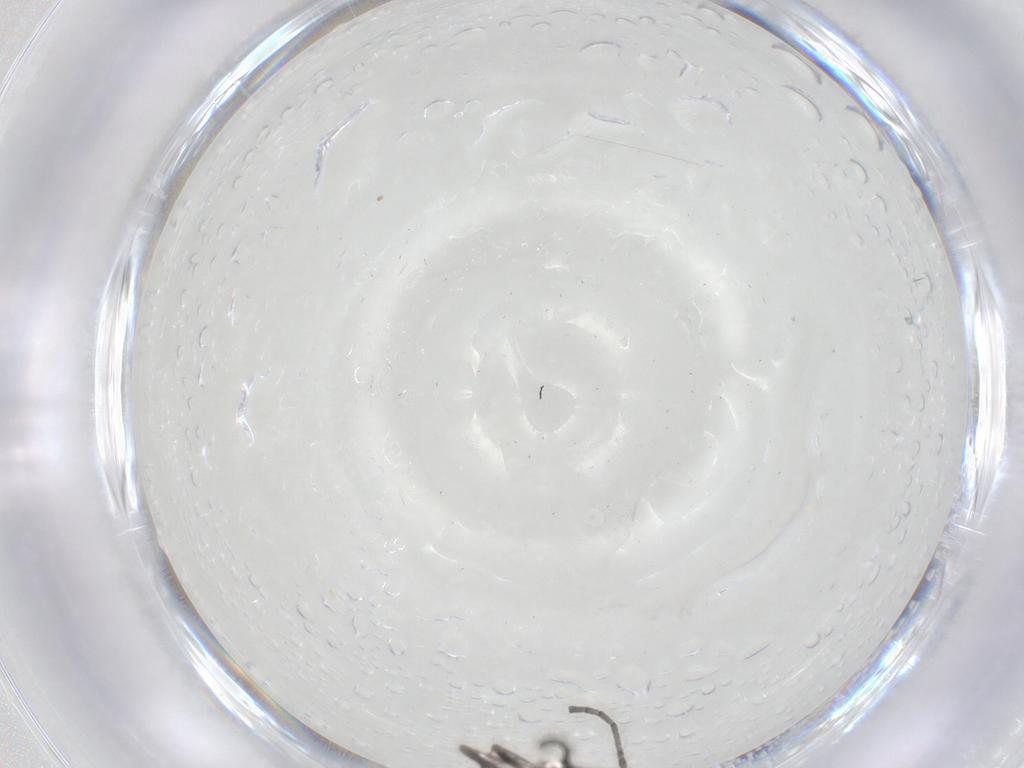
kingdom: Animalia
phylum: Arthropoda
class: Insecta
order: Diptera
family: Cecidomyiidae
